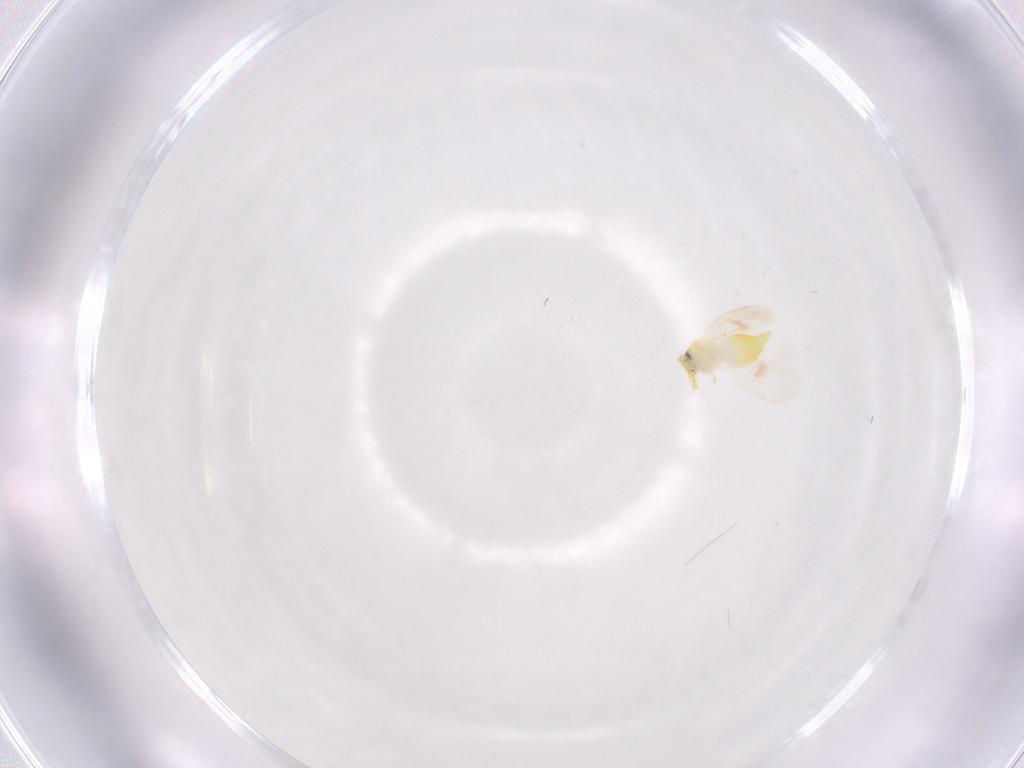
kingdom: Animalia
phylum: Arthropoda
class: Insecta
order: Hemiptera
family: Aleyrodidae
